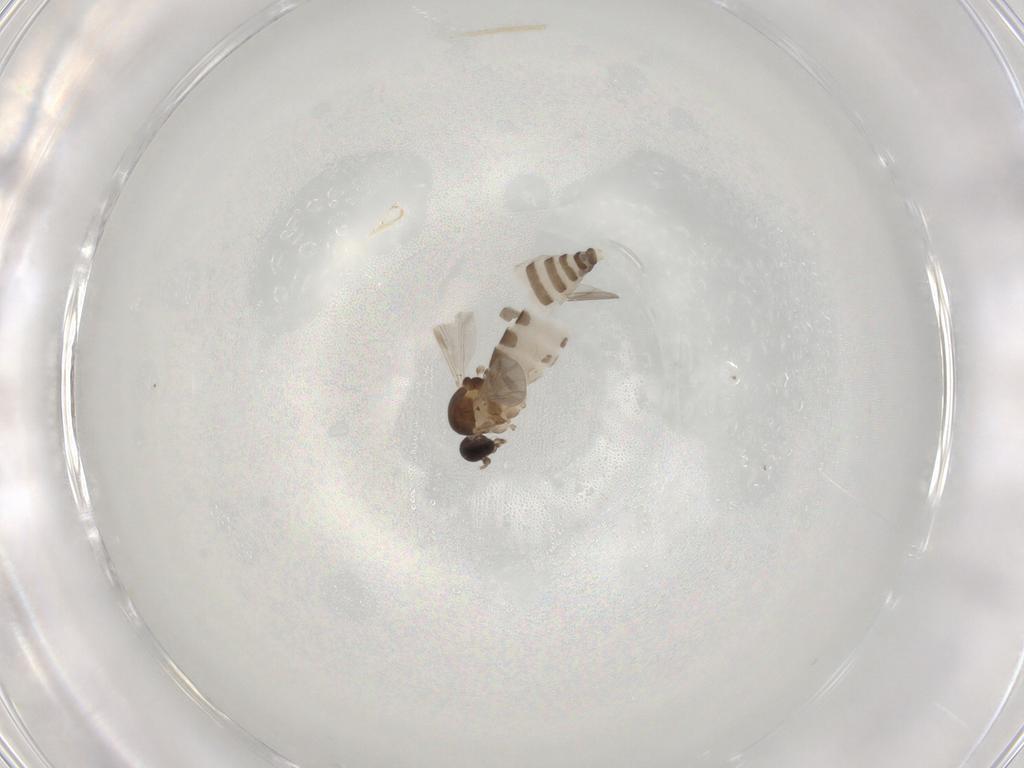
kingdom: Animalia
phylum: Arthropoda
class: Insecta
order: Diptera
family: Ceratopogonidae
